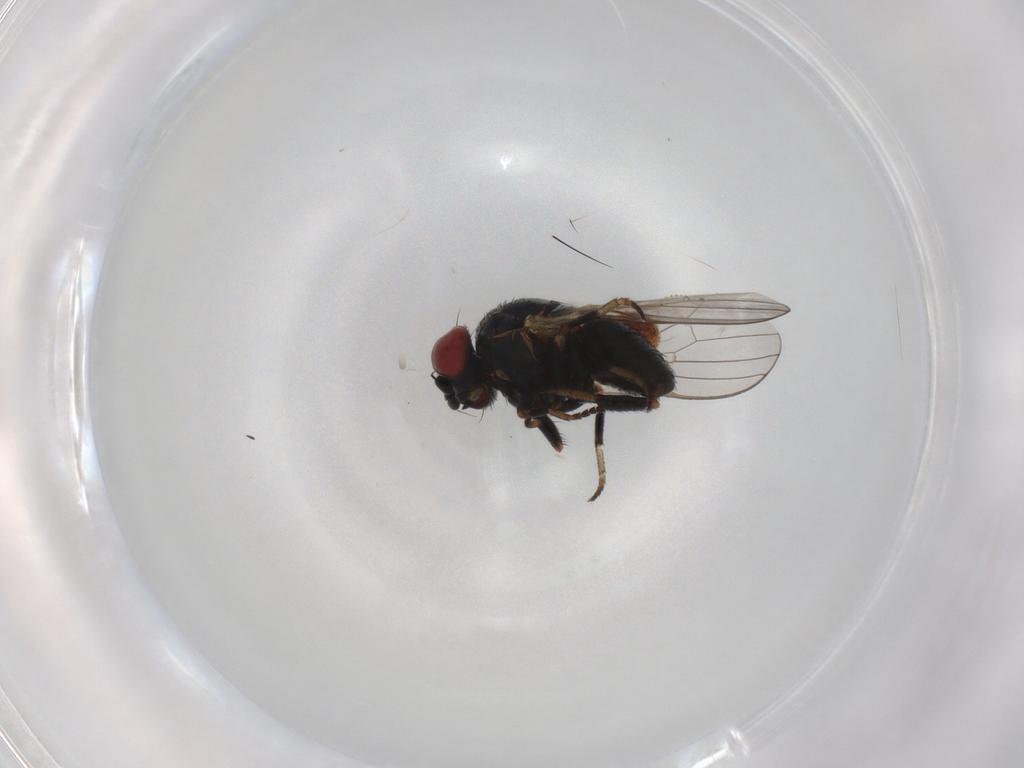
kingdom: Animalia
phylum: Arthropoda
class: Insecta
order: Diptera
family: Chamaemyiidae
